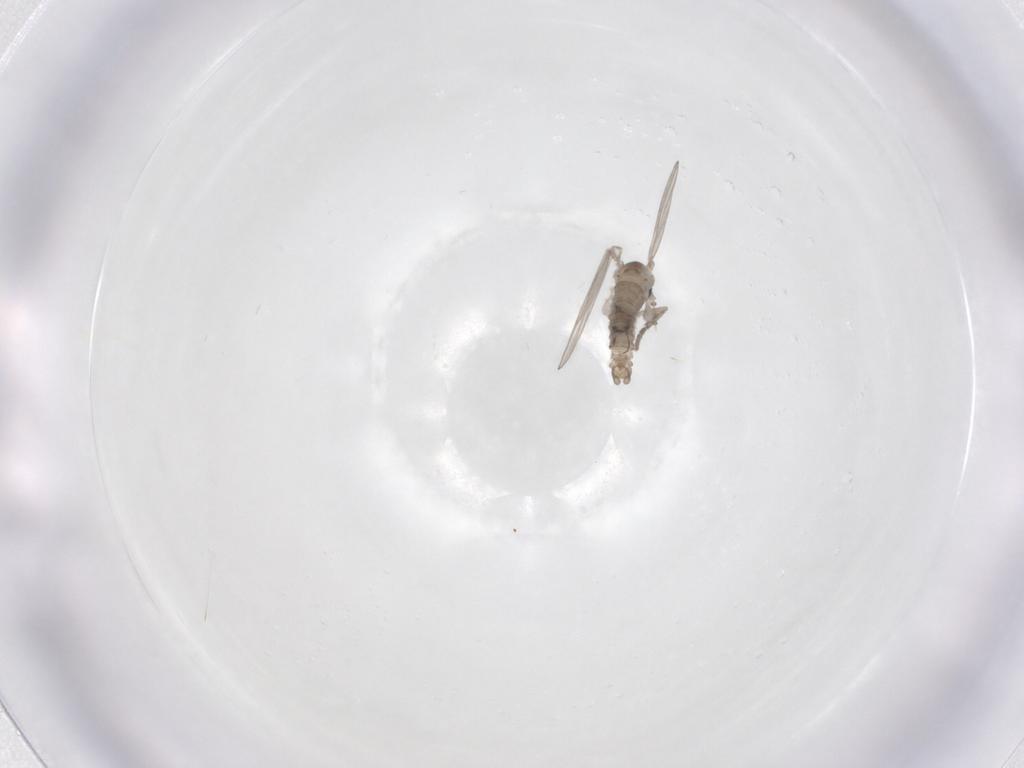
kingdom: Animalia
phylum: Arthropoda
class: Insecta
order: Diptera
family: Psychodidae
